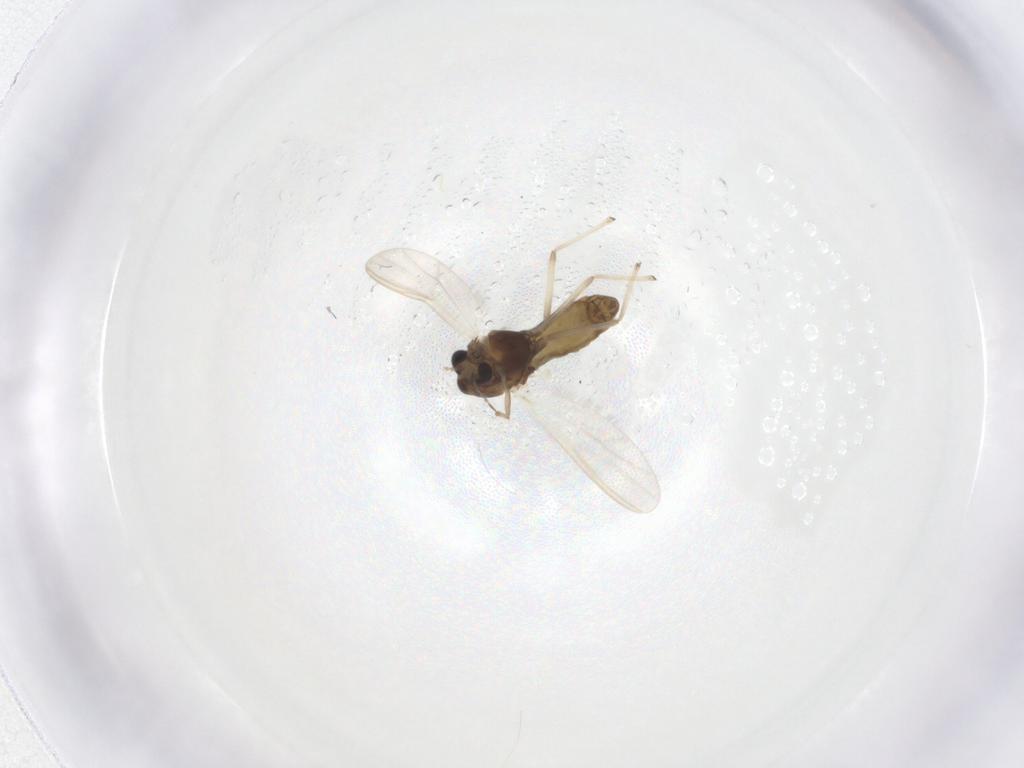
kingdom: Animalia
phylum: Arthropoda
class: Insecta
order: Diptera
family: Chironomidae
